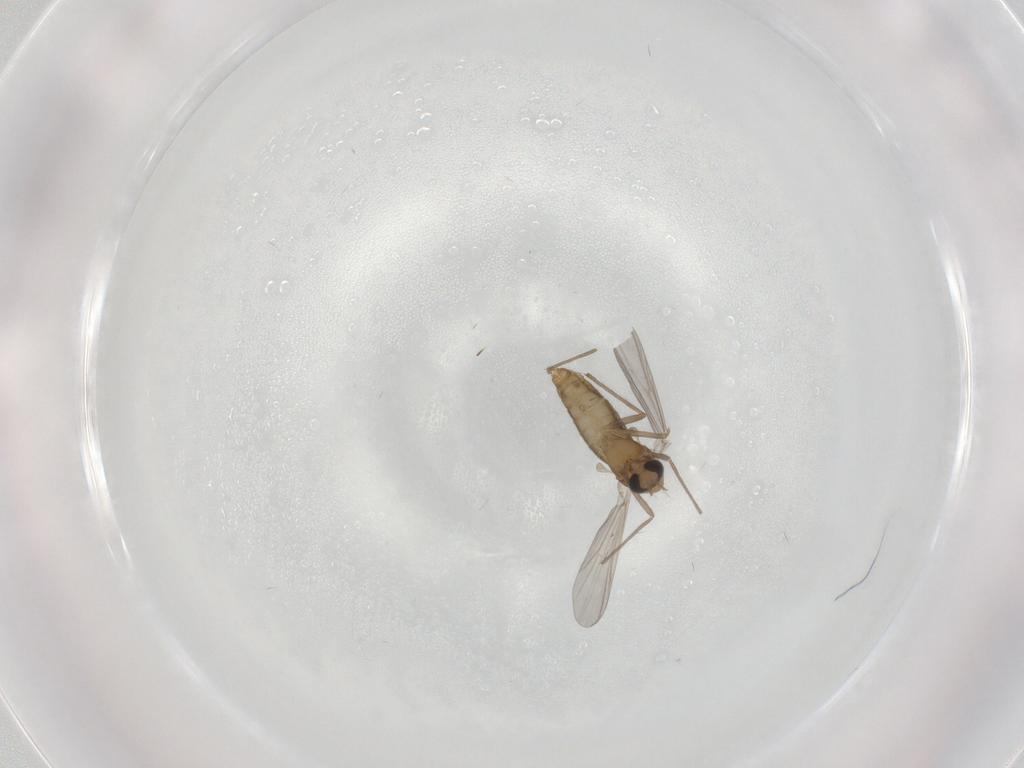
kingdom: Animalia
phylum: Arthropoda
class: Insecta
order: Diptera
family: Chironomidae
